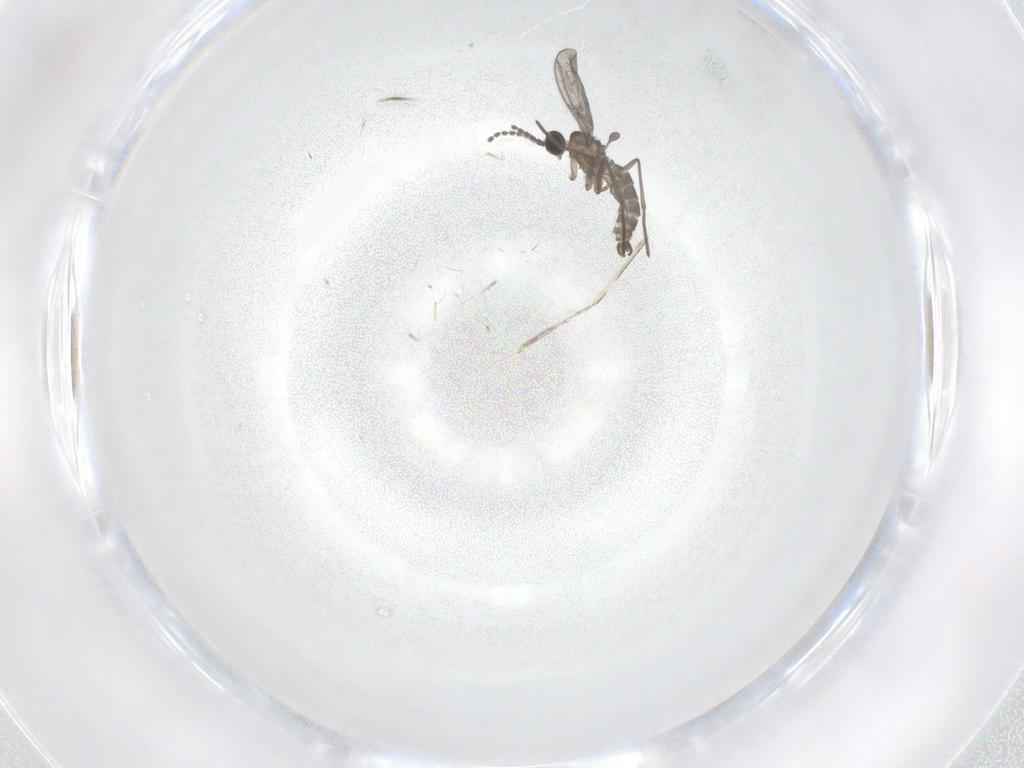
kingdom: Animalia
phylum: Arthropoda
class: Insecta
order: Diptera
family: Cecidomyiidae
